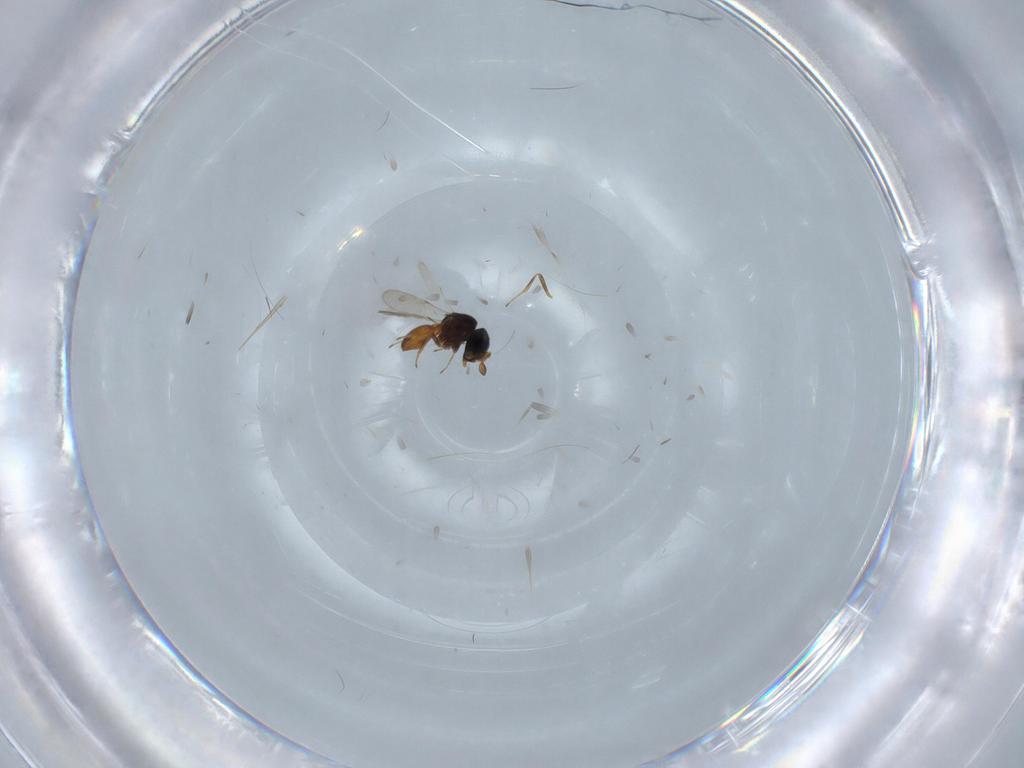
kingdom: Animalia
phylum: Arthropoda
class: Insecta
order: Hymenoptera
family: Scelionidae
